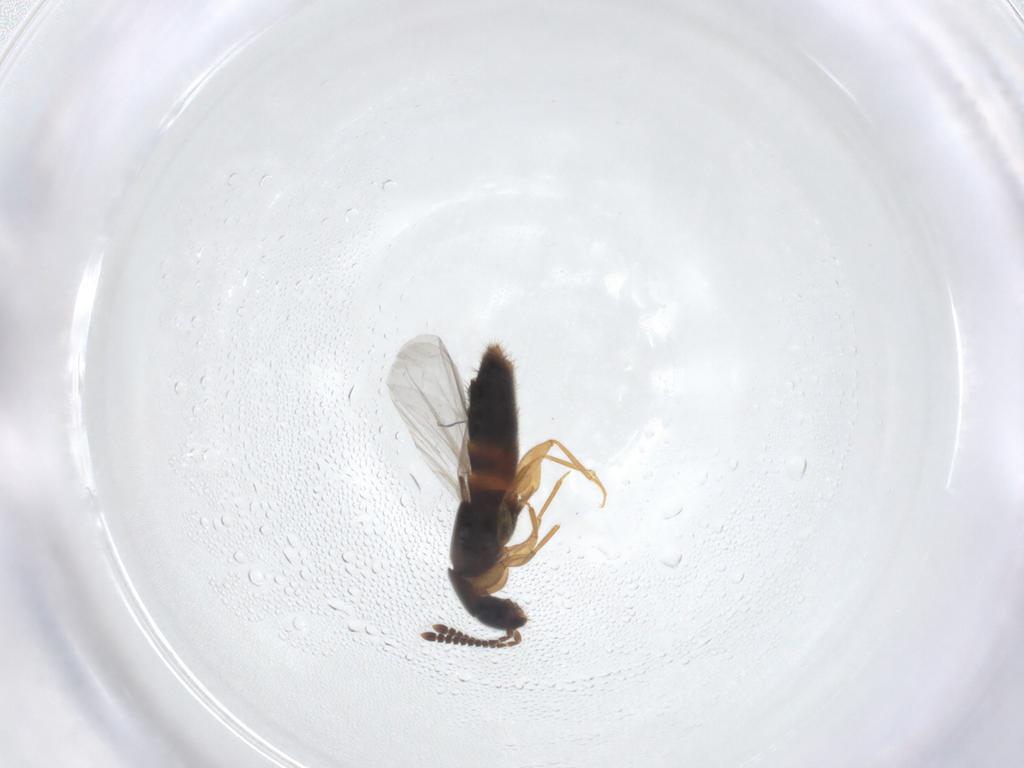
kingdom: Animalia
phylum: Arthropoda
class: Insecta
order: Coleoptera
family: Staphylinidae
